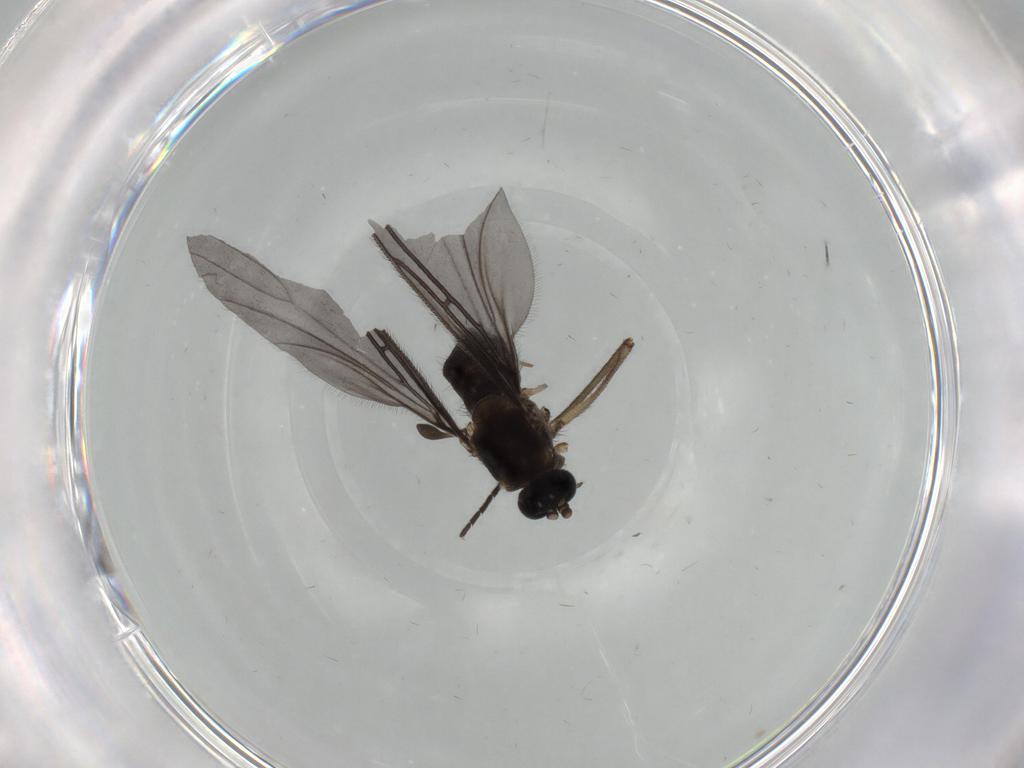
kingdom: Animalia
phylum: Arthropoda
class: Insecta
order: Diptera
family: Sciaridae
